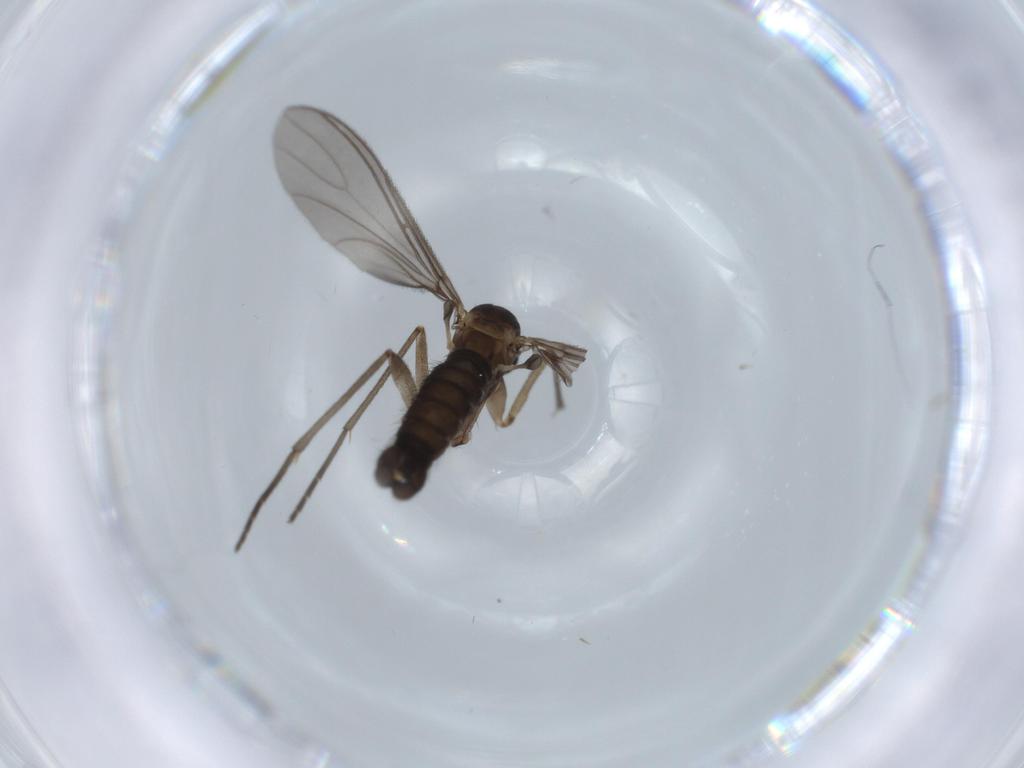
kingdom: Animalia
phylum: Arthropoda
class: Insecta
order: Diptera
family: Sciaridae
